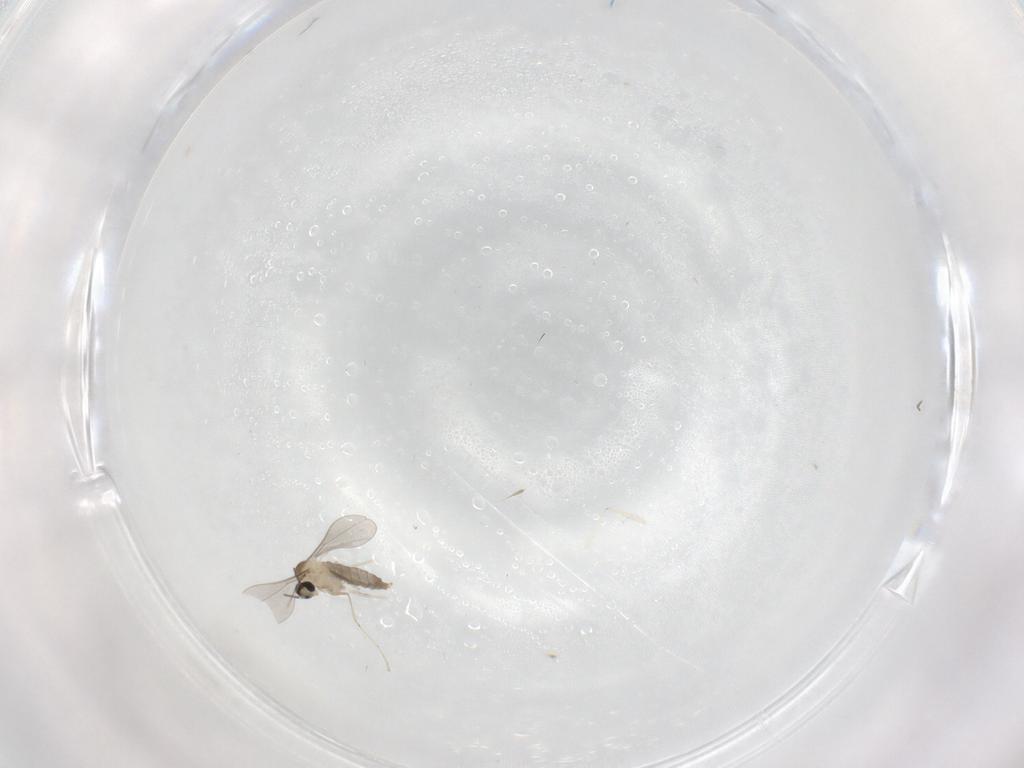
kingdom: Animalia
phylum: Arthropoda
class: Insecta
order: Diptera
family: Cecidomyiidae
